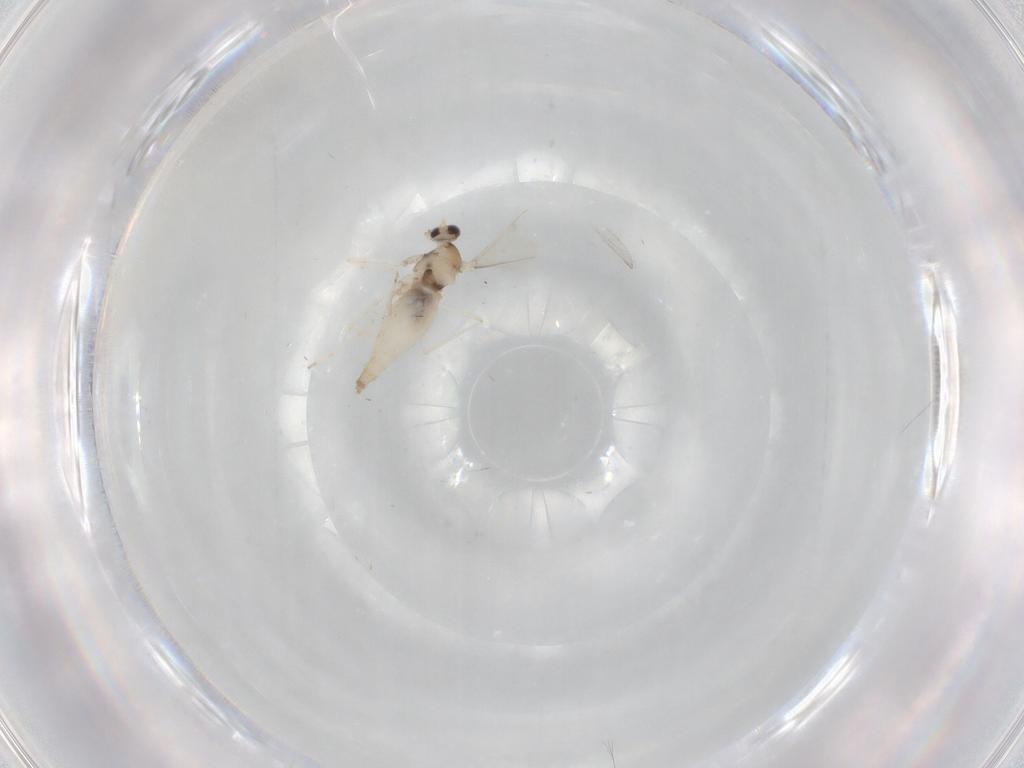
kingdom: Animalia
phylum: Arthropoda
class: Insecta
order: Diptera
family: Cecidomyiidae
